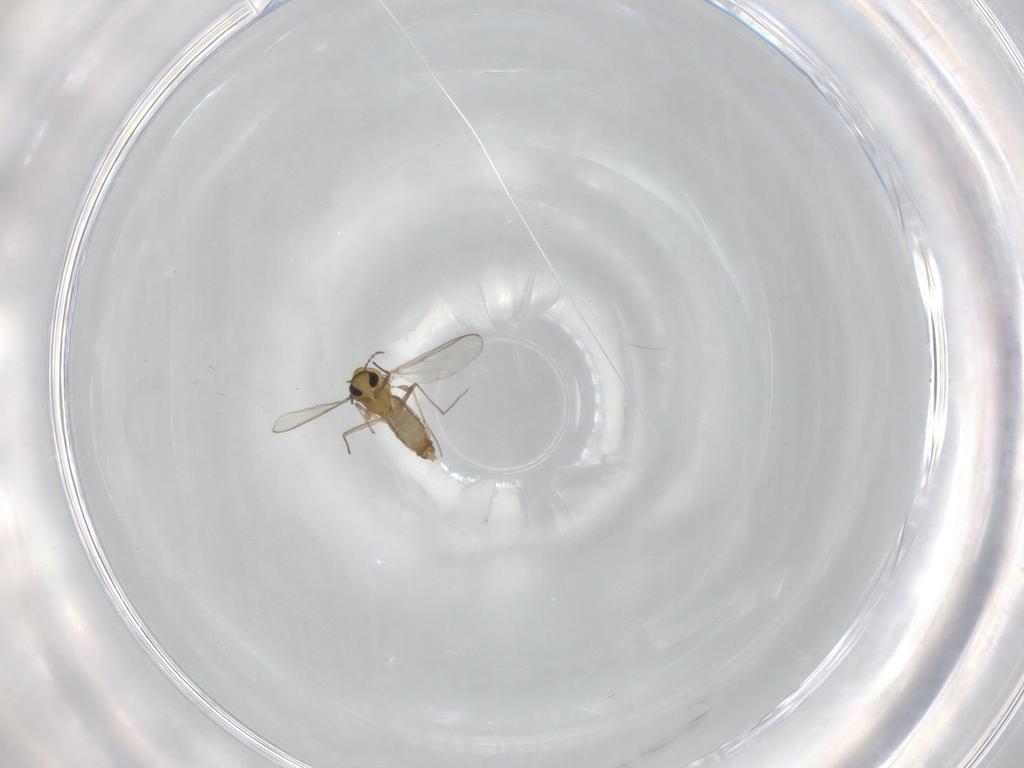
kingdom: Animalia
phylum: Arthropoda
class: Insecta
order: Diptera
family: Chironomidae
